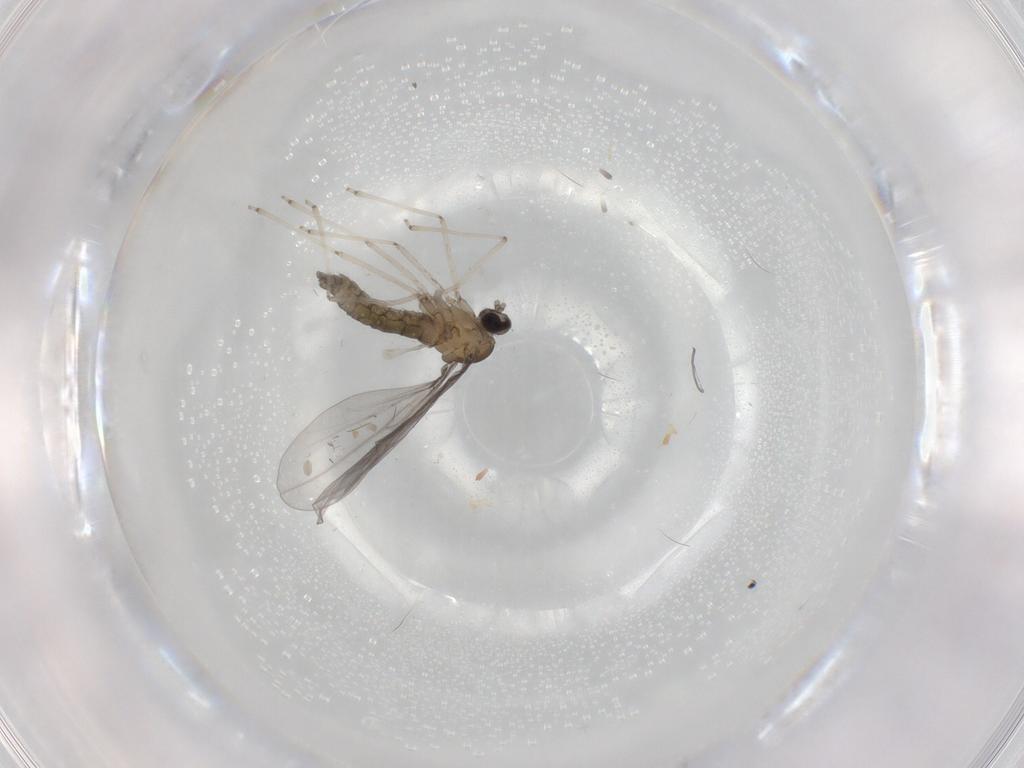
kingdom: Animalia
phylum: Arthropoda
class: Insecta
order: Diptera
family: Cecidomyiidae
